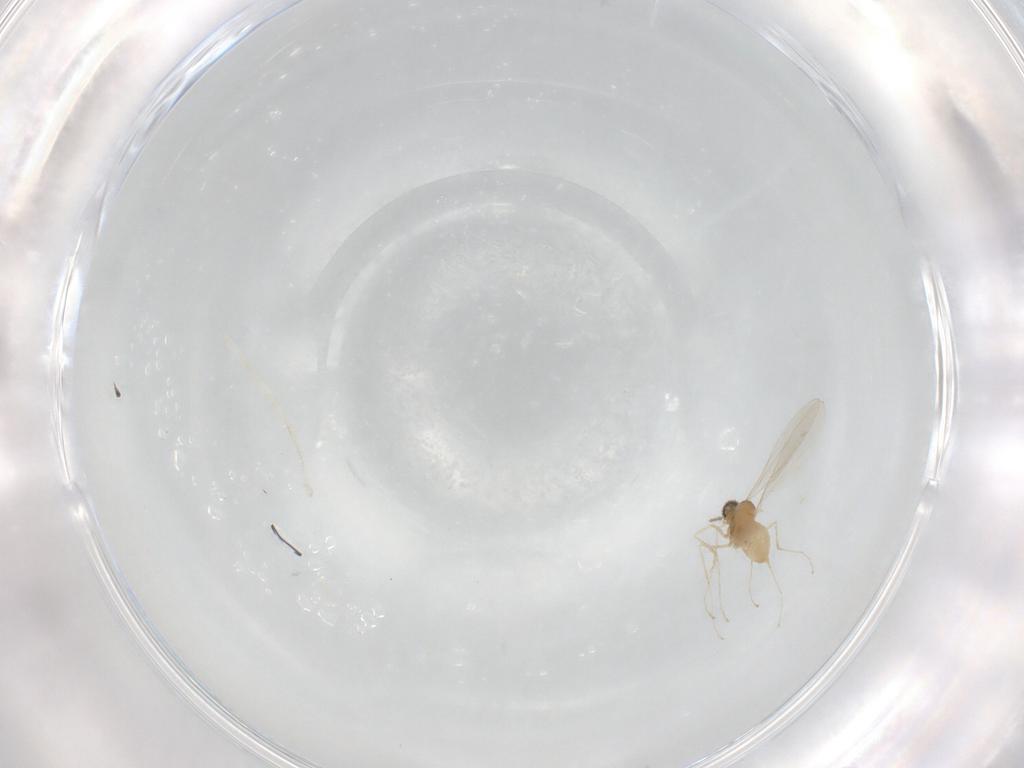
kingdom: Animalia
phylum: Arthropoda
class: Insecta
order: Diptera
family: Cecidomyiidae
